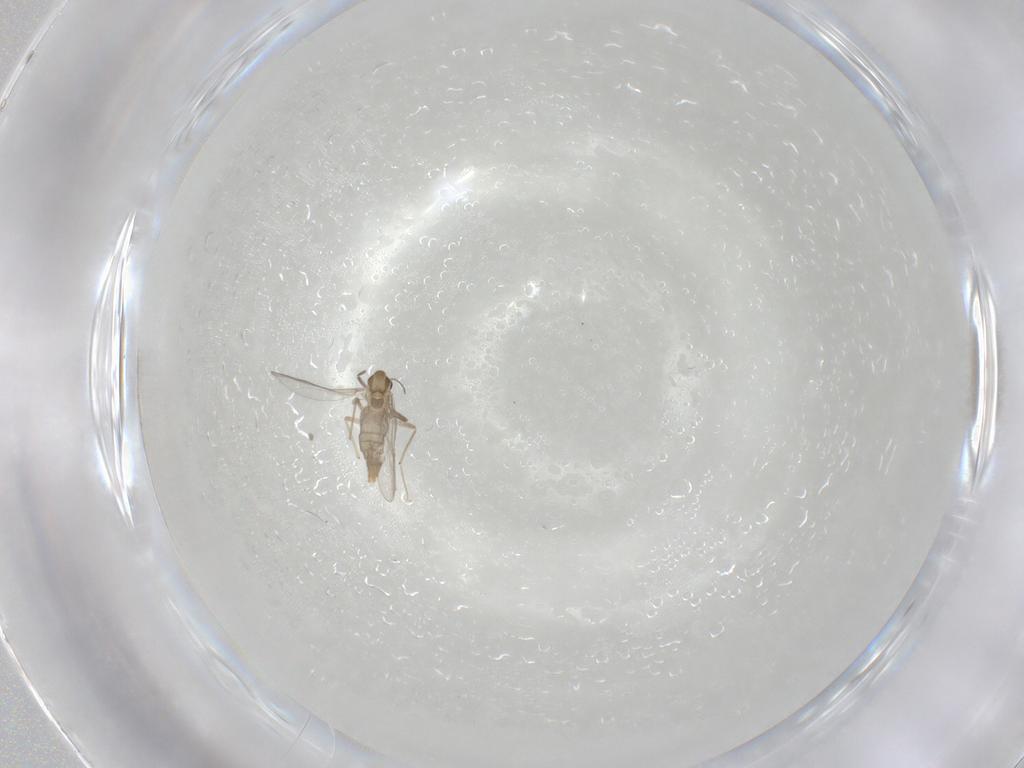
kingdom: Animalia
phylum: Arthropoda
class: Insecta
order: Diptera
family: Chironomidae
